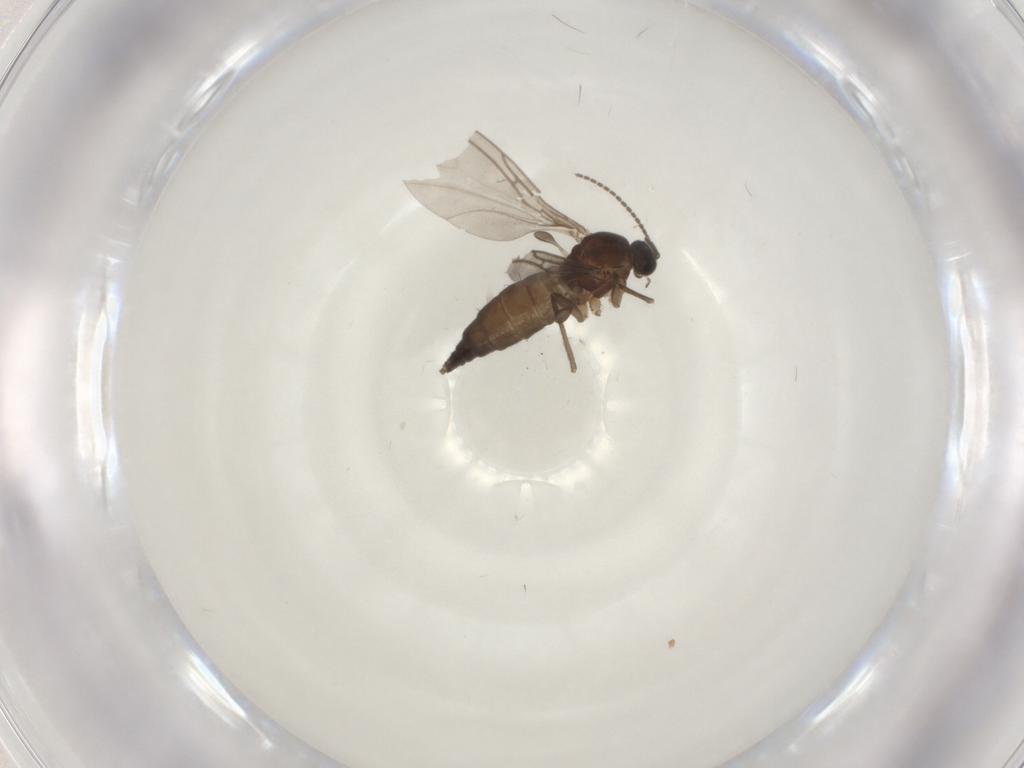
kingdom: Animalia
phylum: Arthropoda
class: Insecta
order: Diptera
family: Sciaridae
